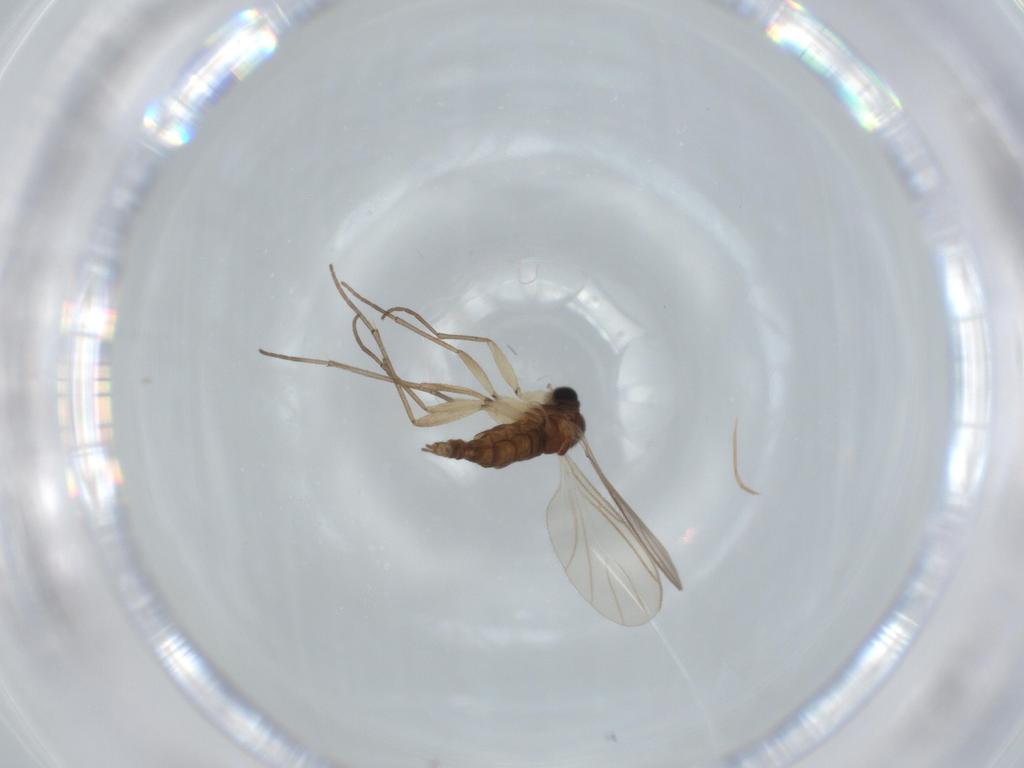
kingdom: Animalia
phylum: Arthropoda
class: Insecta
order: Diptera
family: Sciaridae
